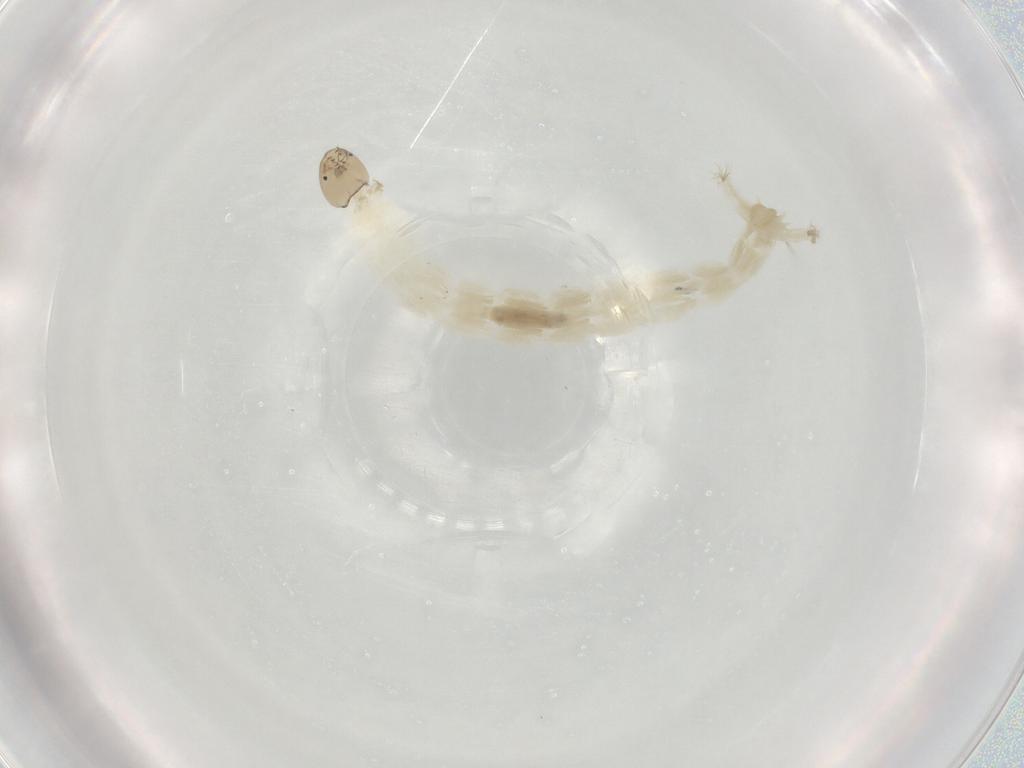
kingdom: Animalia
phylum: Arthropoda
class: Insecta
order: Diptera
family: Chironomidae
